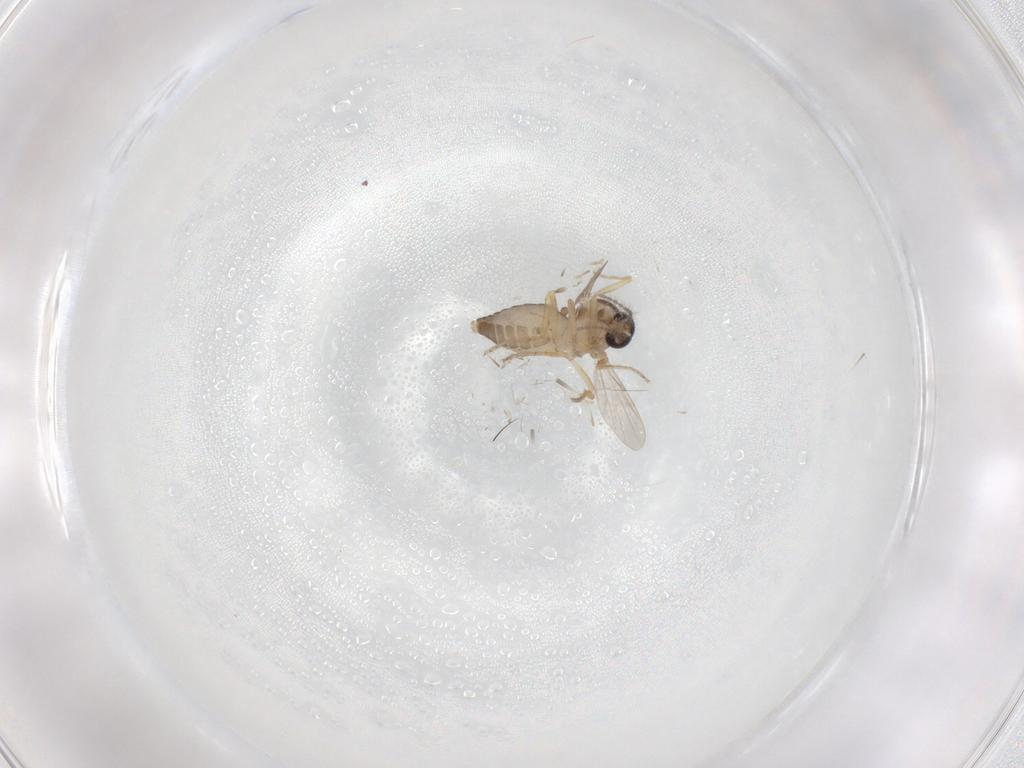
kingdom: Animalia
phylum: Arthropoda
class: Insecta
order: Diptera
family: Ceratopogonidae
